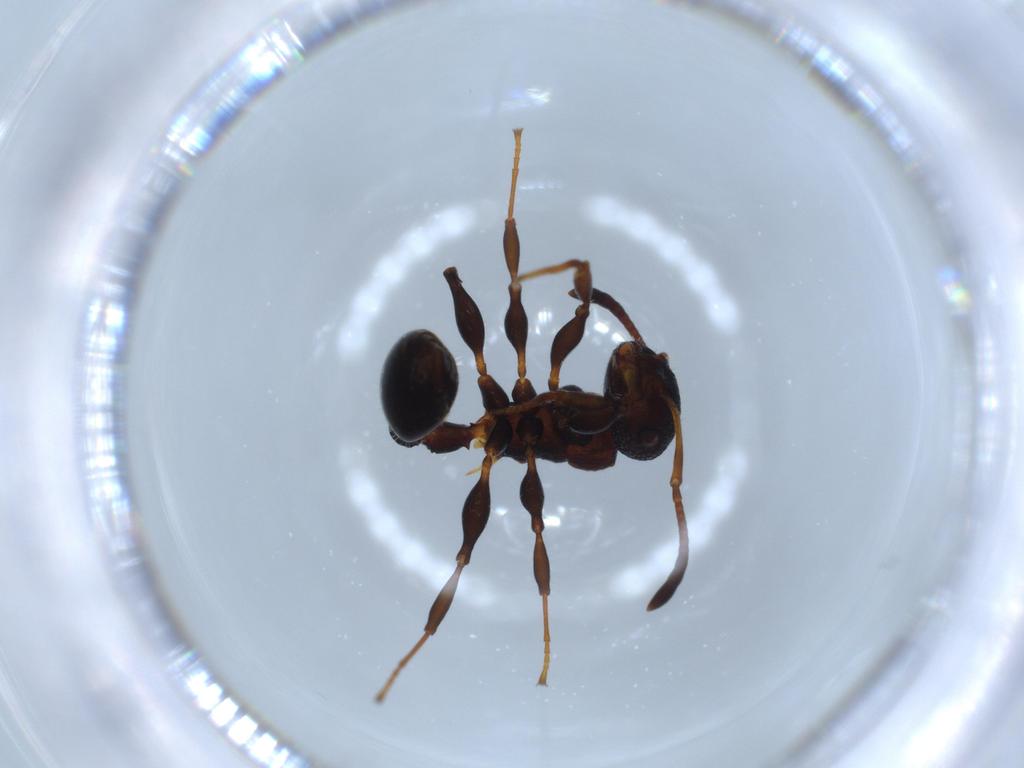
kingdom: Animalia
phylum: Arthropoda
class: Insecta
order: Hymenoptera
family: Formicidae
